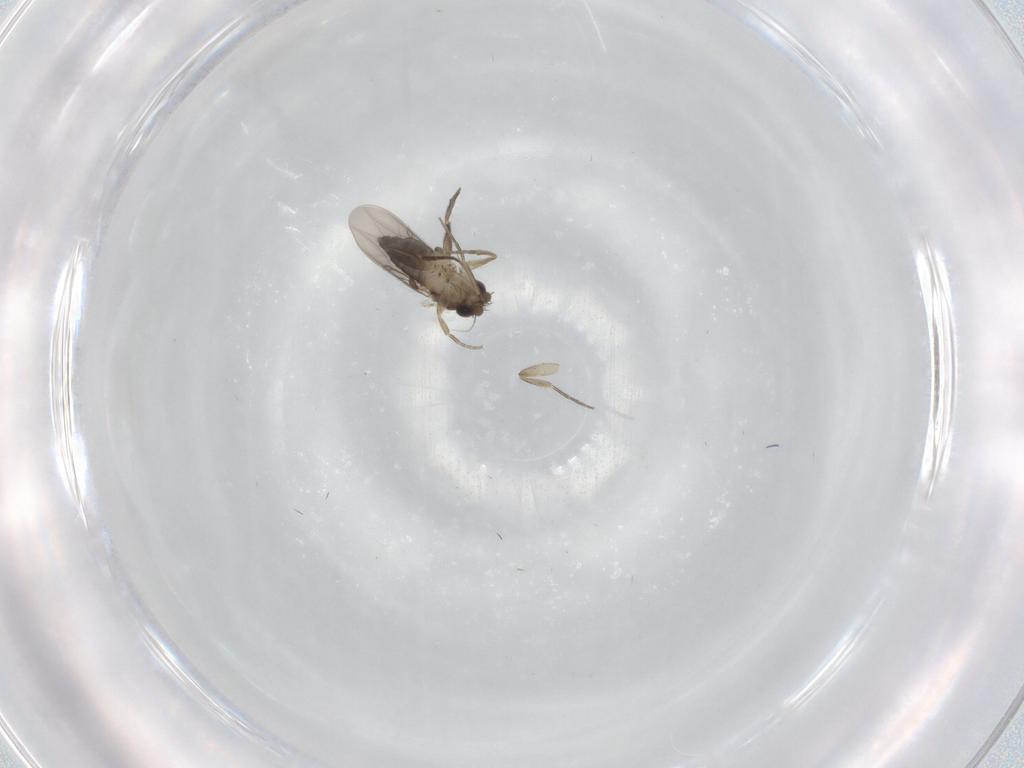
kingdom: Animalia
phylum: Arthropoda
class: Insecta
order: Diptera
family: Phoridae
